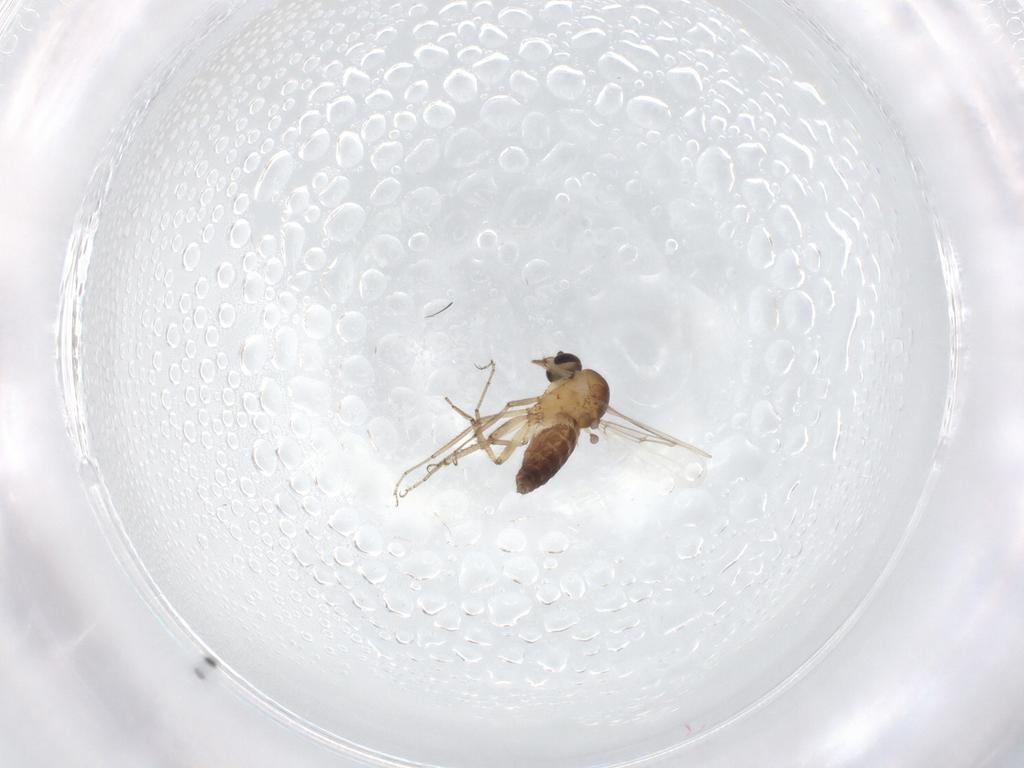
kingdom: Animalia
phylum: Arthropoda
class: Insecta
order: Diptera
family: Ceratopogonidae
